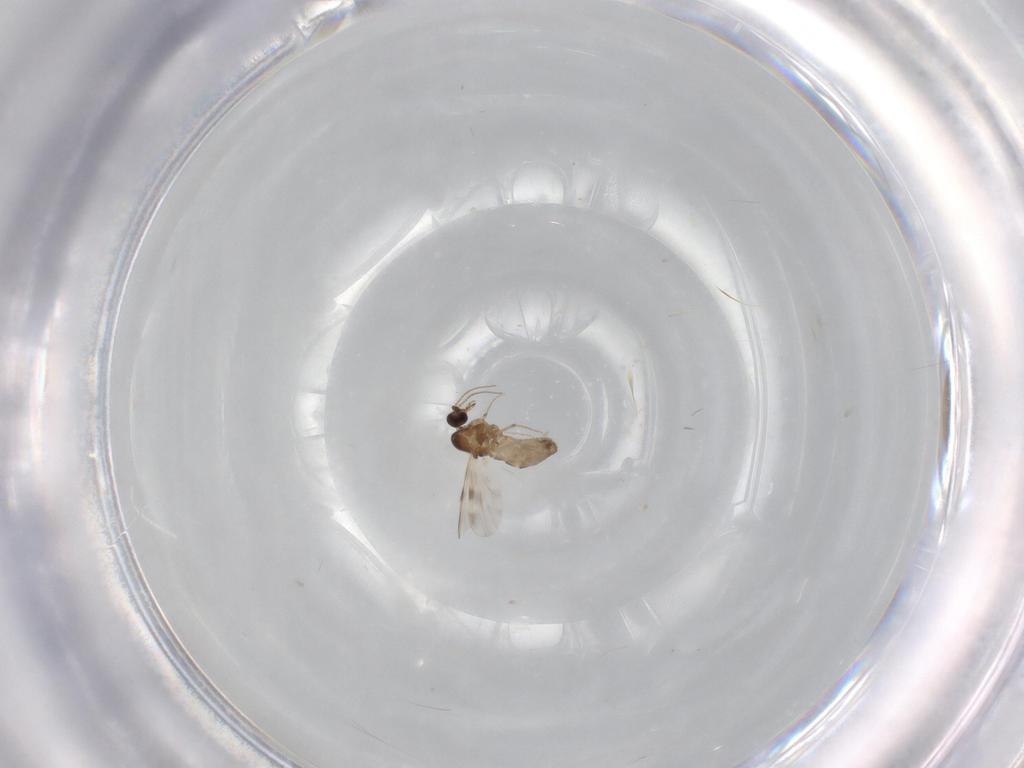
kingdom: Animalia
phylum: Arthropoda
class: Insecta
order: Diptera
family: Ceratopogonidae
